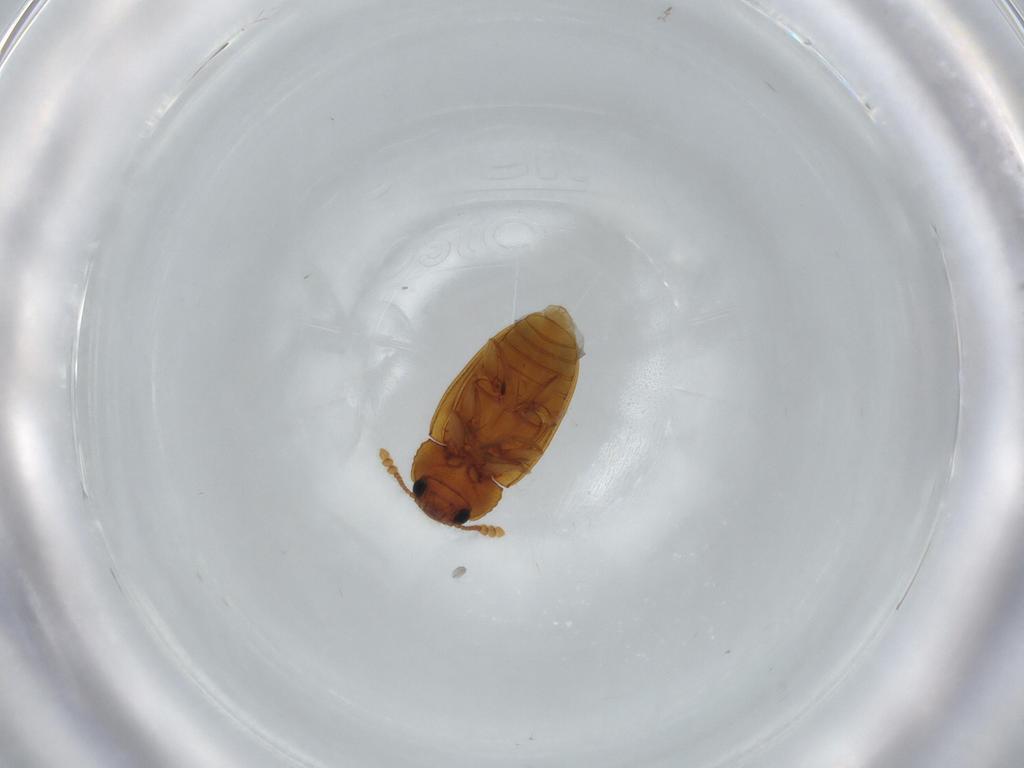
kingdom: Animalia
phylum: Arthropoda
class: Insecta
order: Coleoptera
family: Erotylidae
